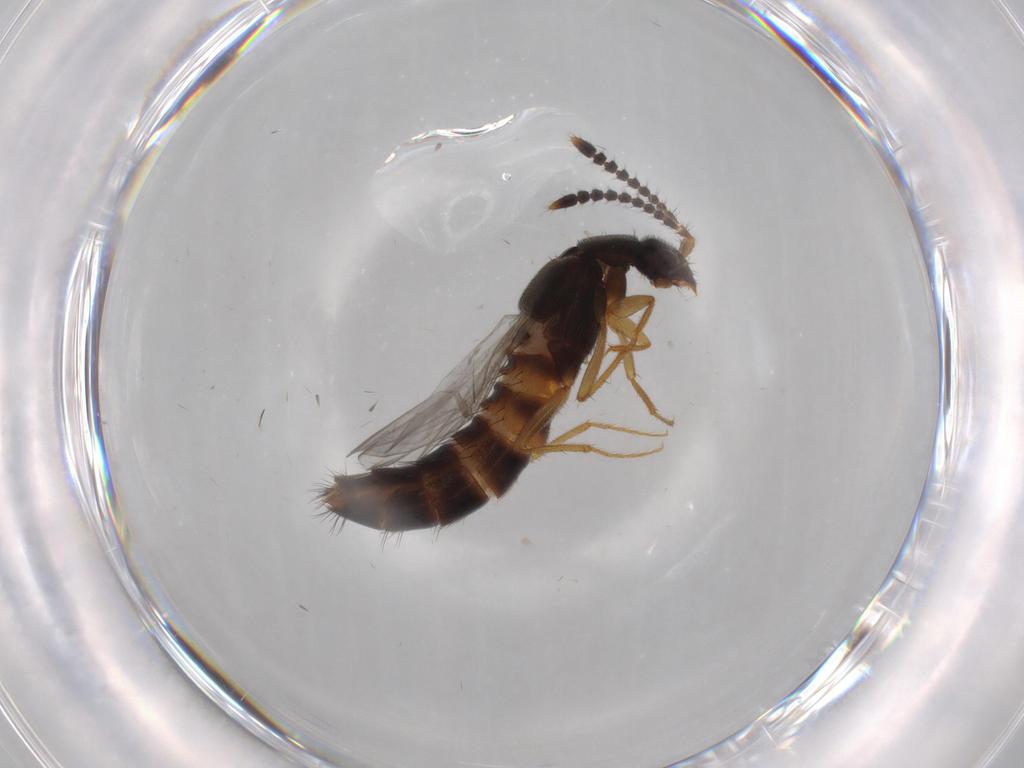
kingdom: Animalia
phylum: Arthropoda
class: Insecta
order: Coleoptera
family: Staphylinidae
